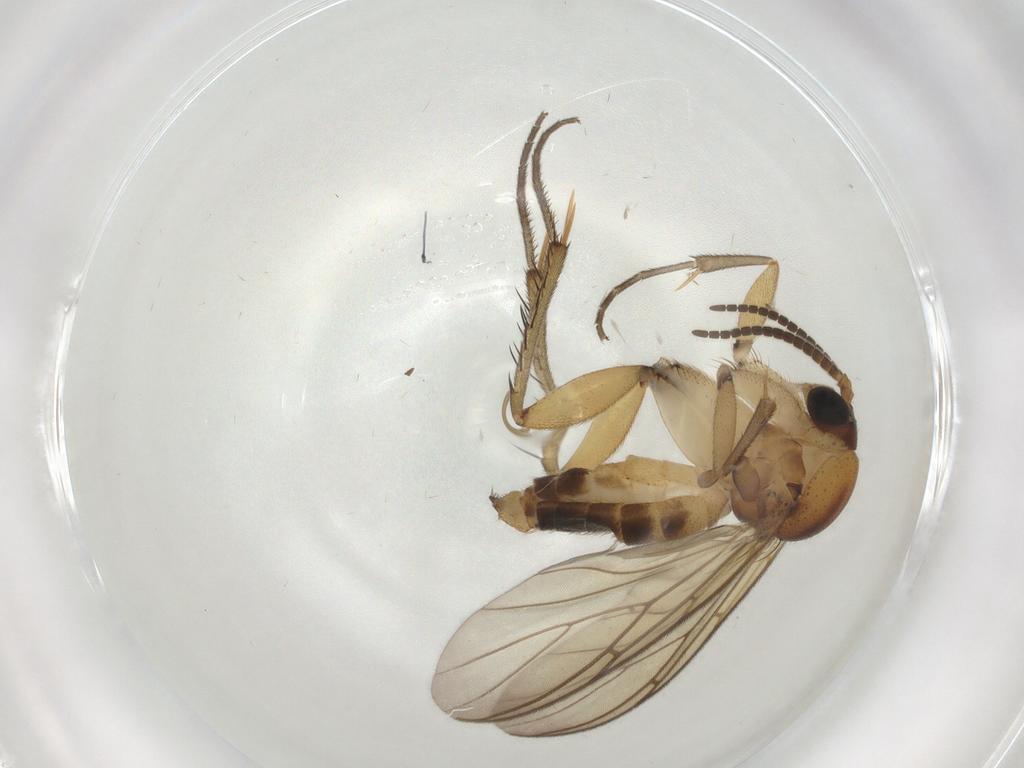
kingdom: Animalia
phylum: Arthropoda
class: Insecta
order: Diptera
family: Mycetophilidae
